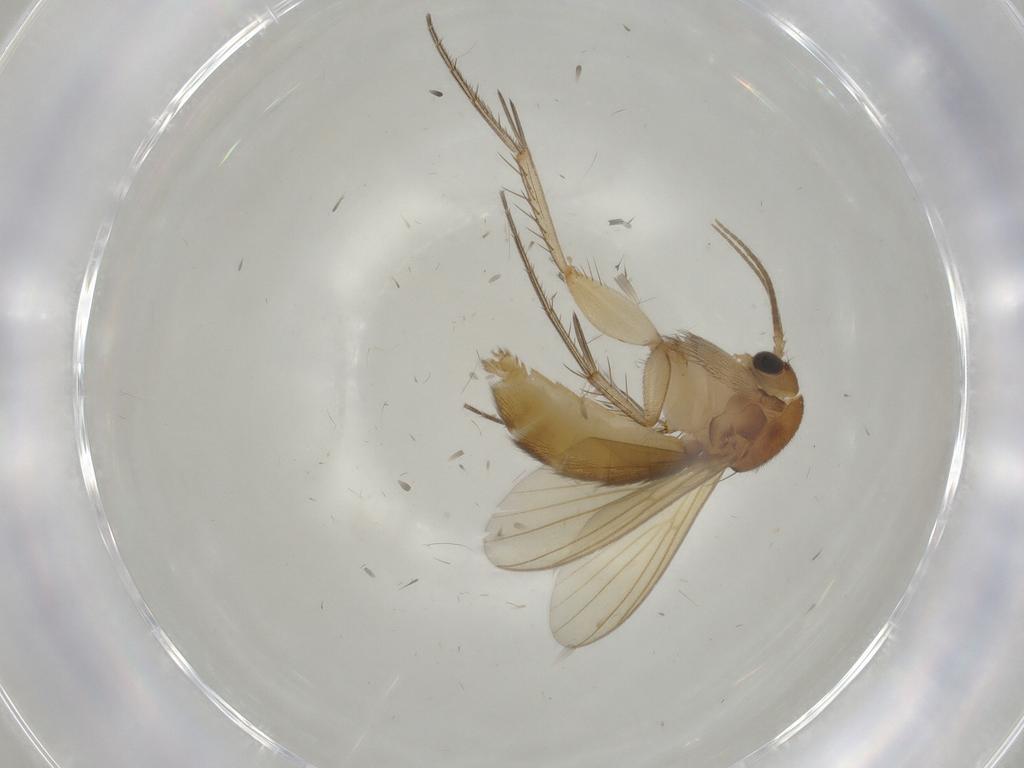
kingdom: Animalia
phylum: Arthropoda
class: Insecta
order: Diptera
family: Mycetophilidae
